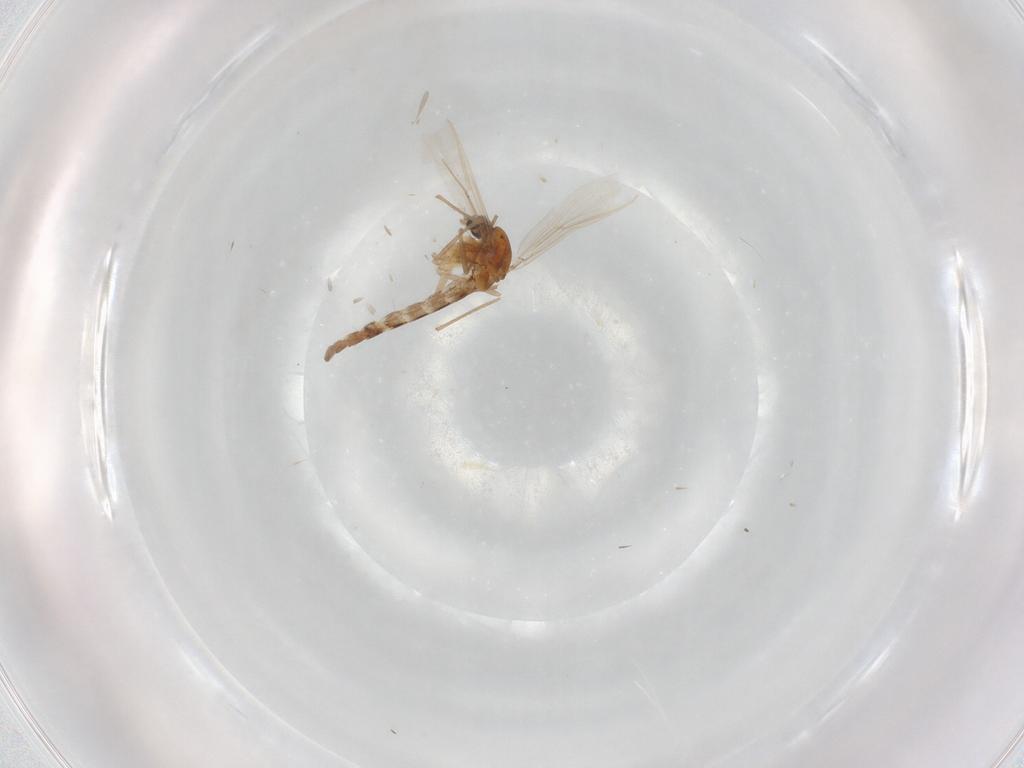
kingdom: Animalia
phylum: Arthropoda
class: Insecta
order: Diptera
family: Chironomidae
